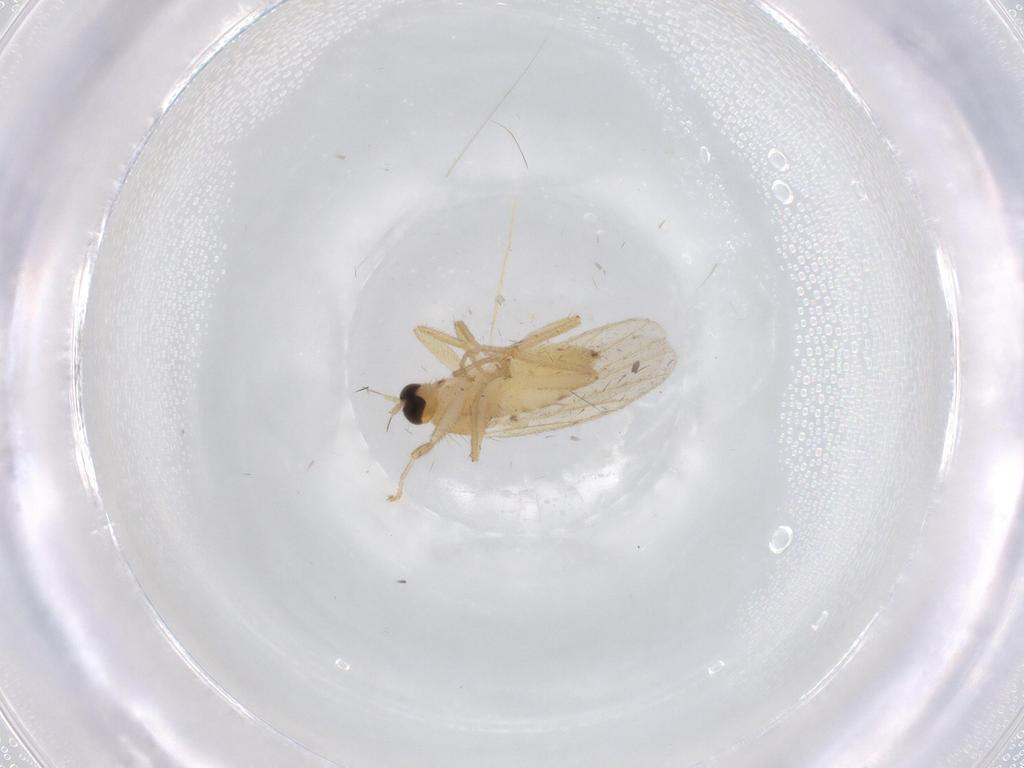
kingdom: Animalia
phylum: Arthropoda
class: Insecta
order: Diptera
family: Hybotidae
